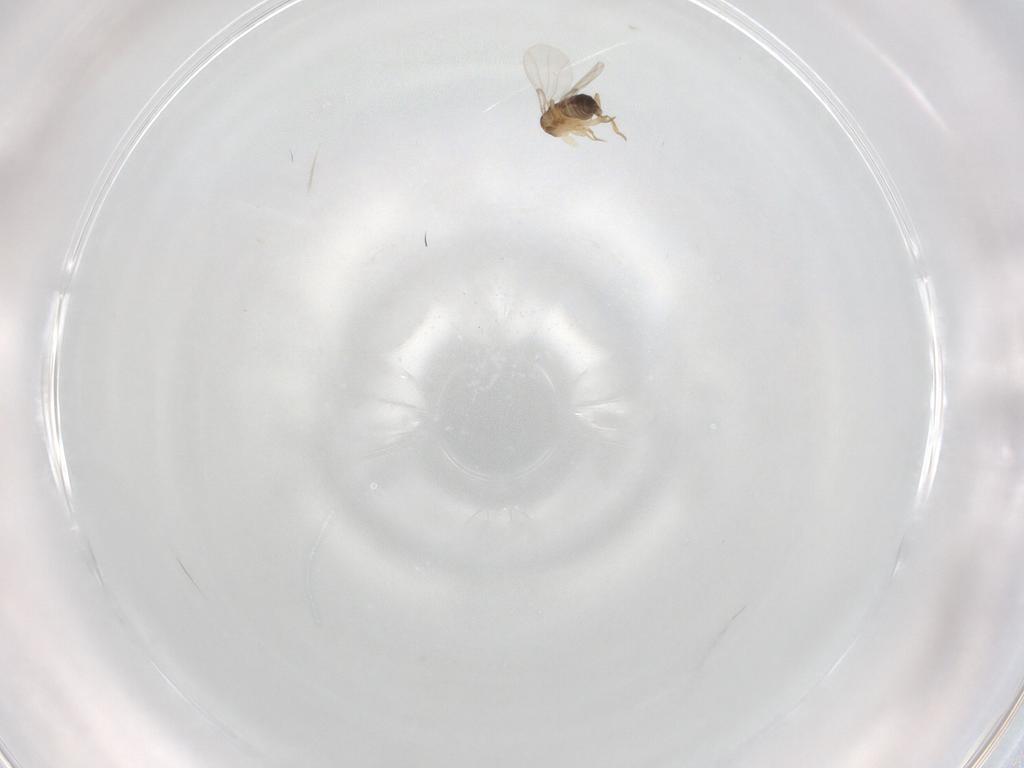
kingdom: Animalia
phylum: Arthropoda
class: Insecta
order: Diptera
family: Phoridae
